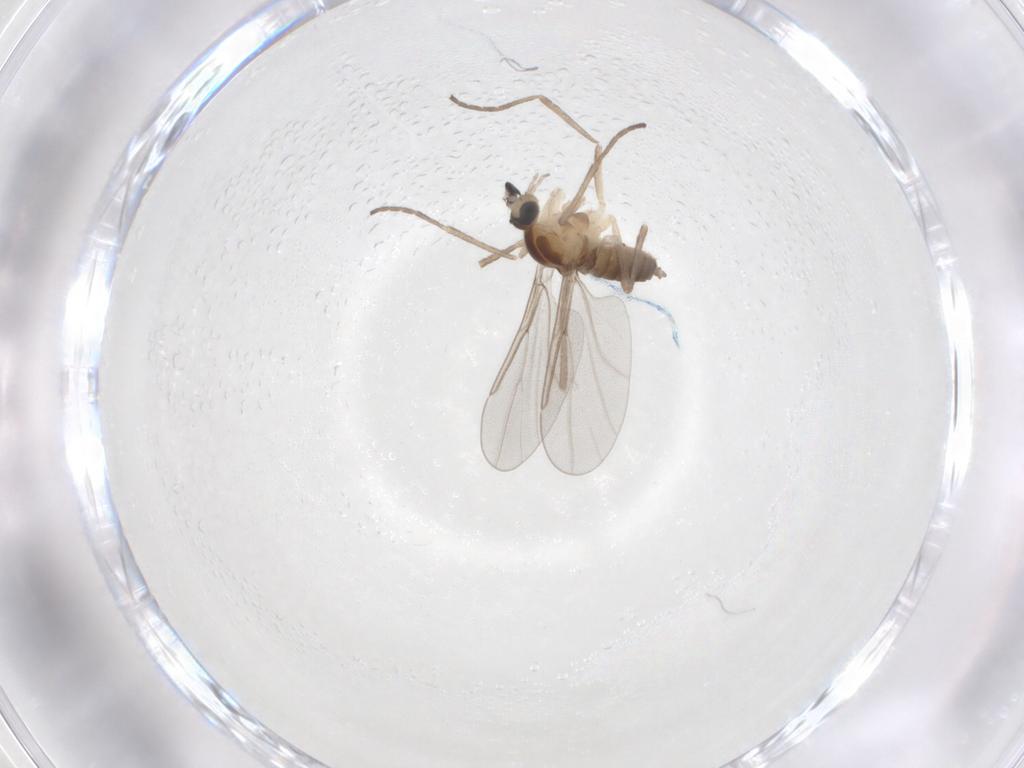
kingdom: Animalia
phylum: Arthropoda
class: Insecta
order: Diptera
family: Cecidomyiidae
